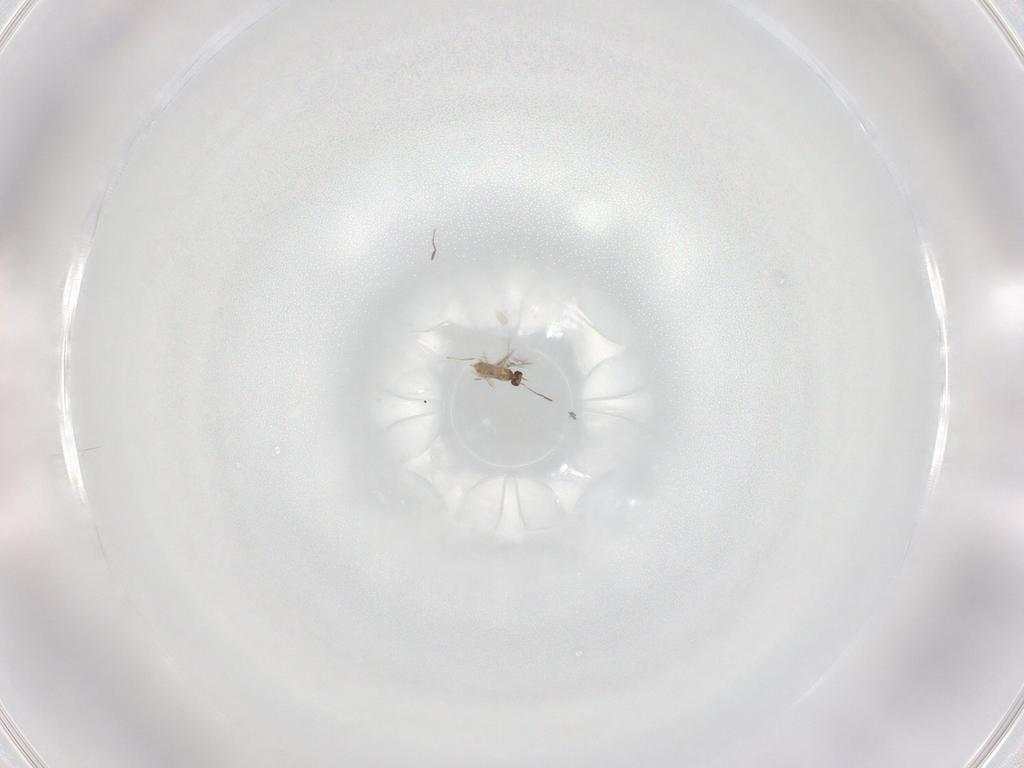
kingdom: Animalia
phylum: Arthropoda
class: Insecta
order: Hymenoptera
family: Mymaridae
